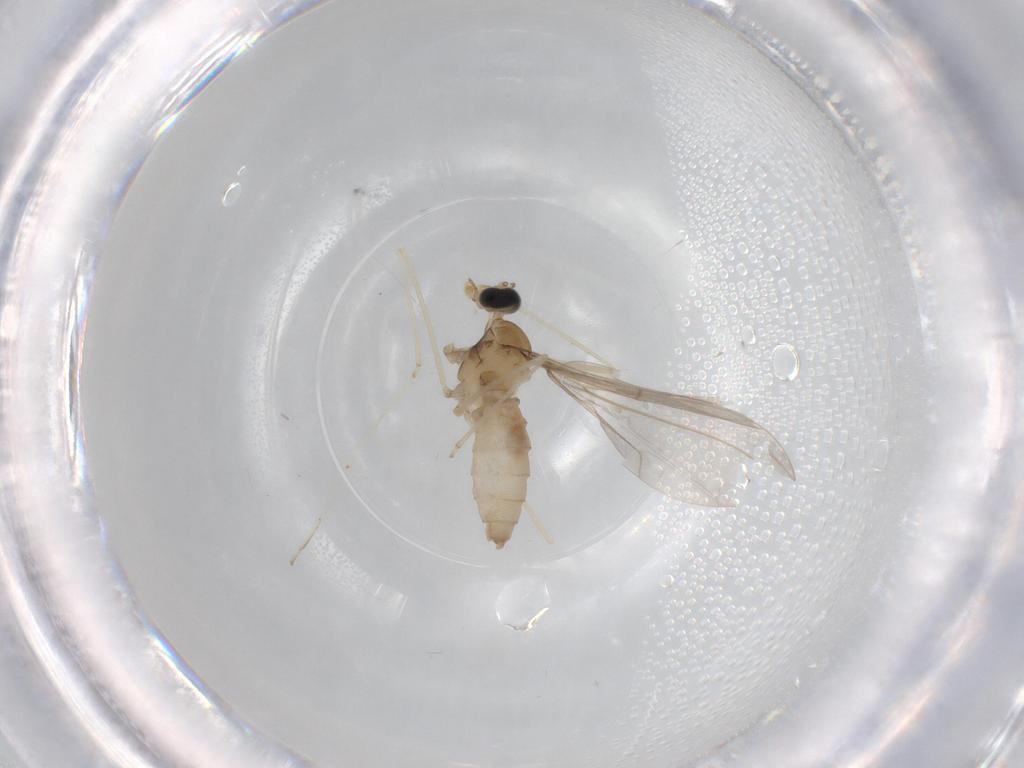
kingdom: Animalia
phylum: Arthropoda
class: Insecta
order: Diptera
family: Cecidomyiidae
